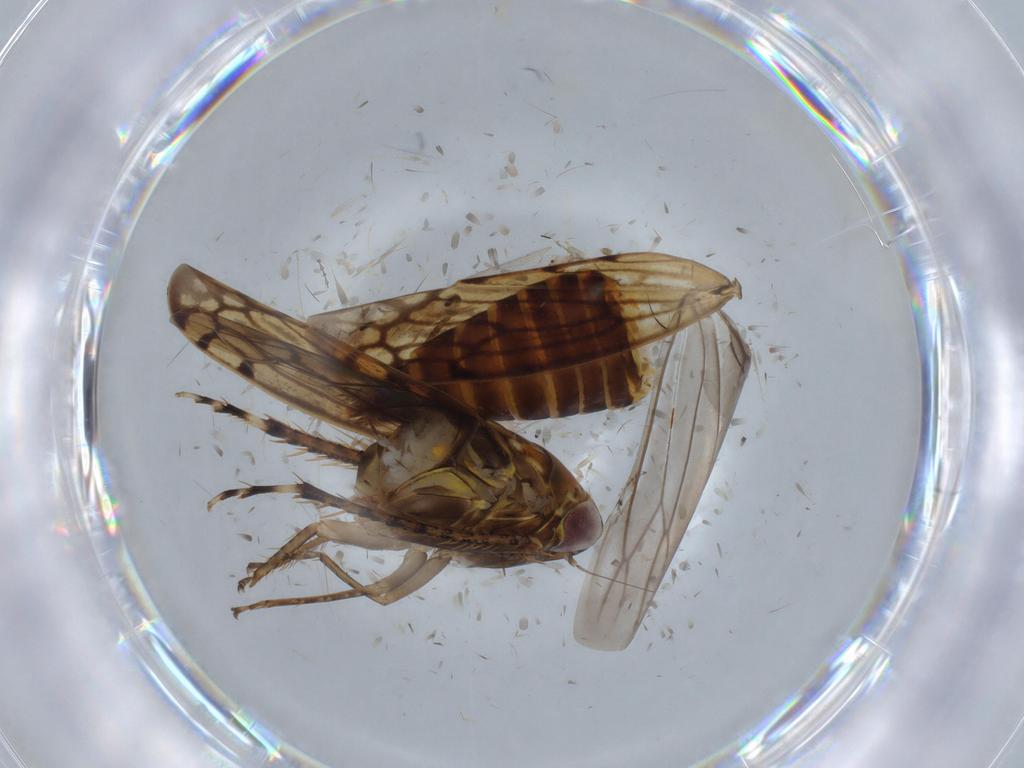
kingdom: Animalia
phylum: Arthropoda
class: Insecta
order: Hemiptera
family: Cicadellidae
